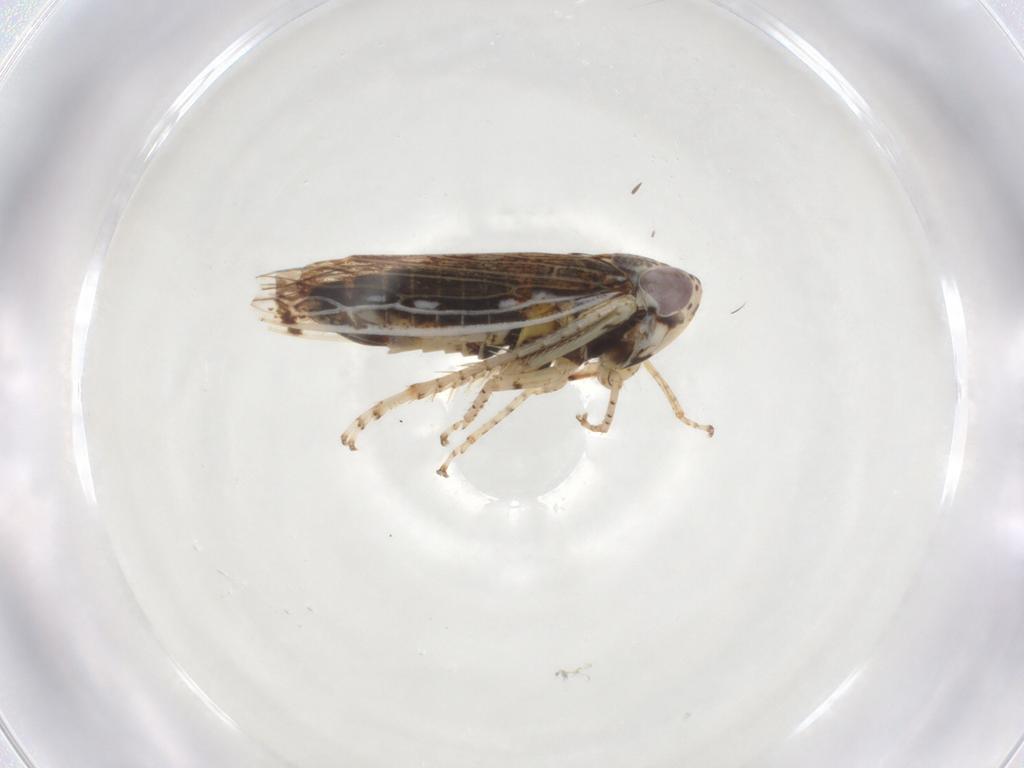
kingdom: Animalia
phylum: Arthropoda
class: Insecta
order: Hemiptera
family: Cicadellidae
